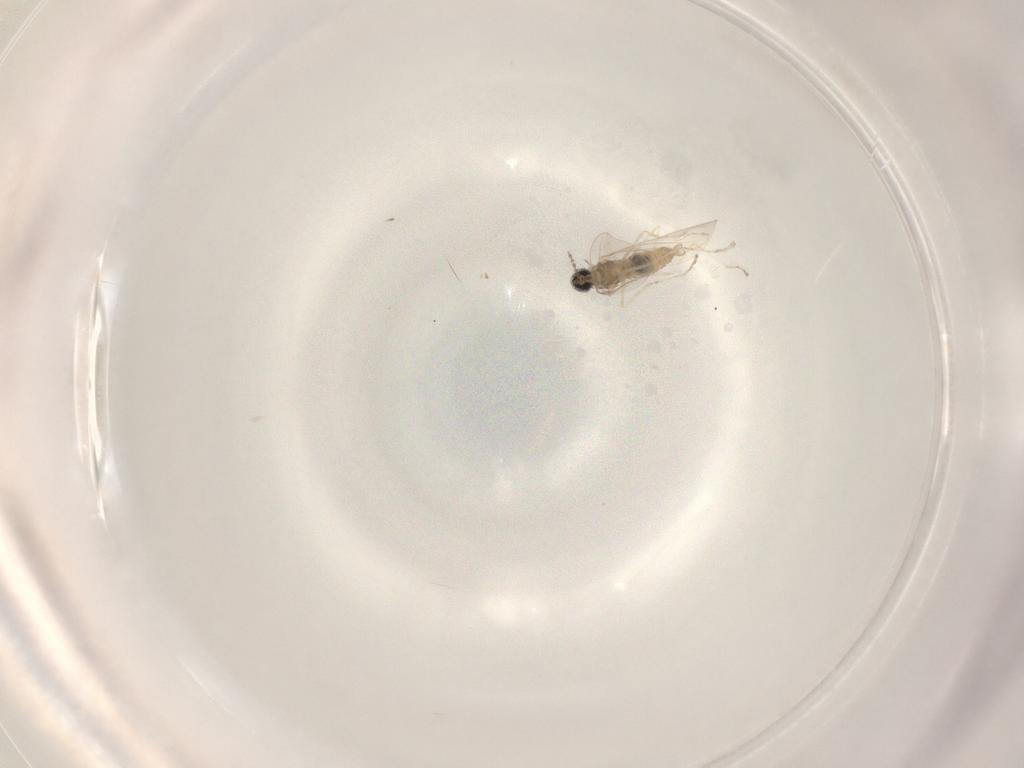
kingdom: Animalia
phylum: Arthropoda
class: Insecta
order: Diptera
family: Cecidomyiidae
